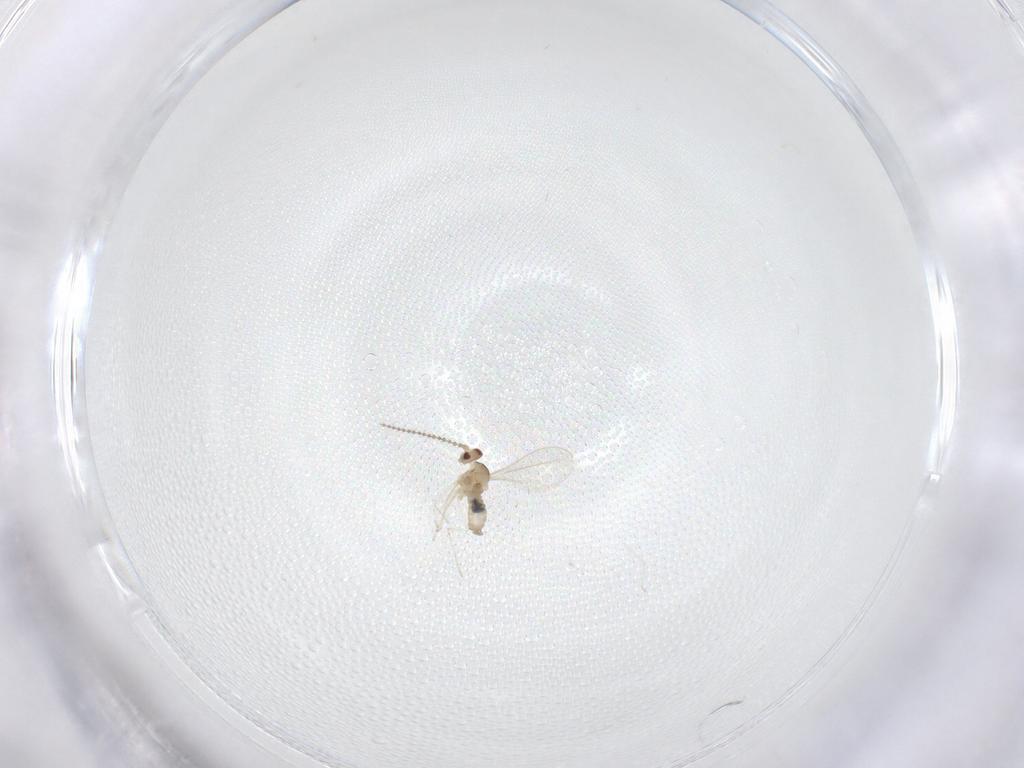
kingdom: Animalia
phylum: Arthropoda
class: Insecta
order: Diptera
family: Cecidomyiidae
